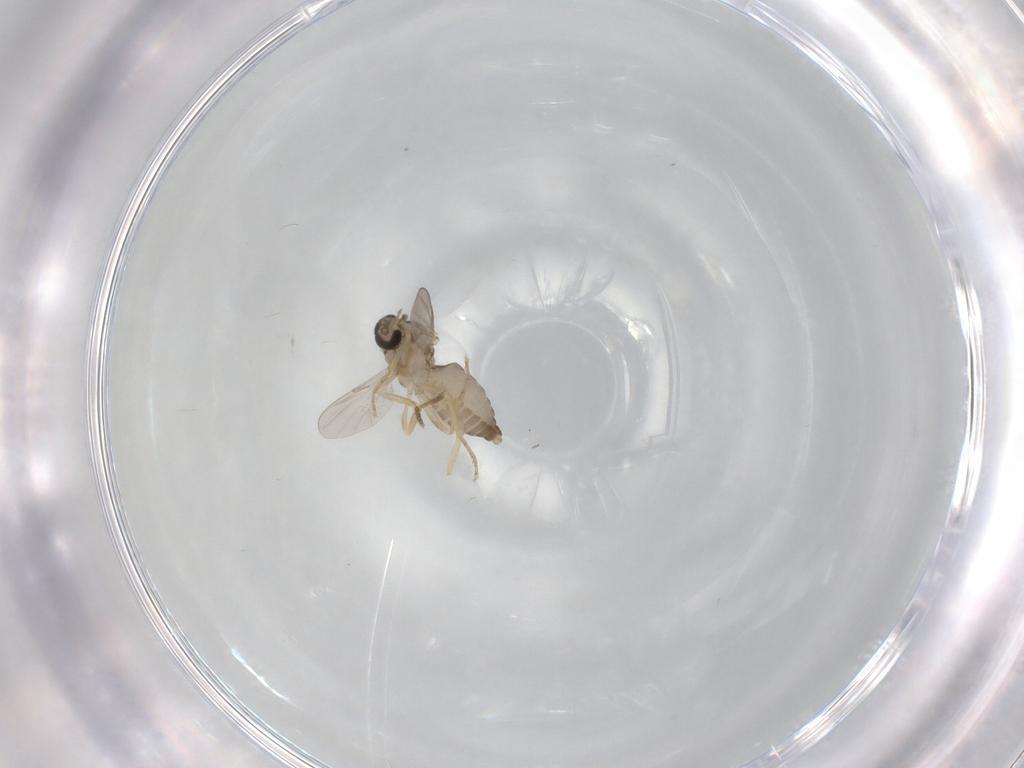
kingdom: Animalia
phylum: Arthropoda
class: Insecta
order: Diptera
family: Ceratopogonidae
